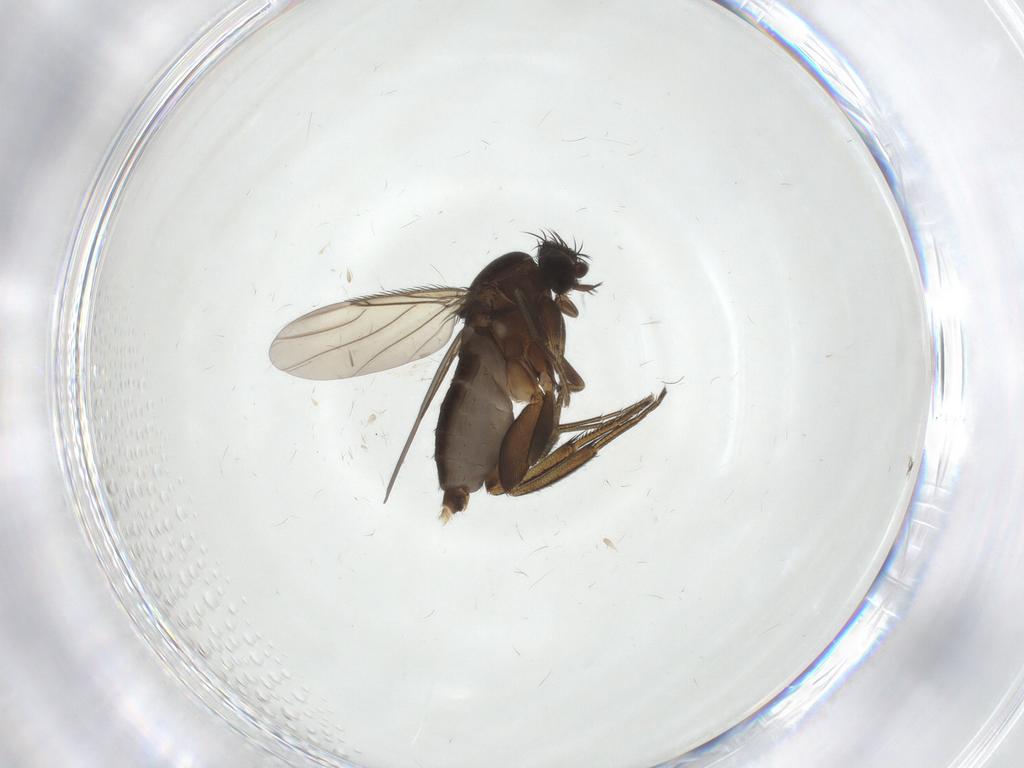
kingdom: Animalia
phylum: Arthropoda
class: Insecta
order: Diptera
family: Phoridae
